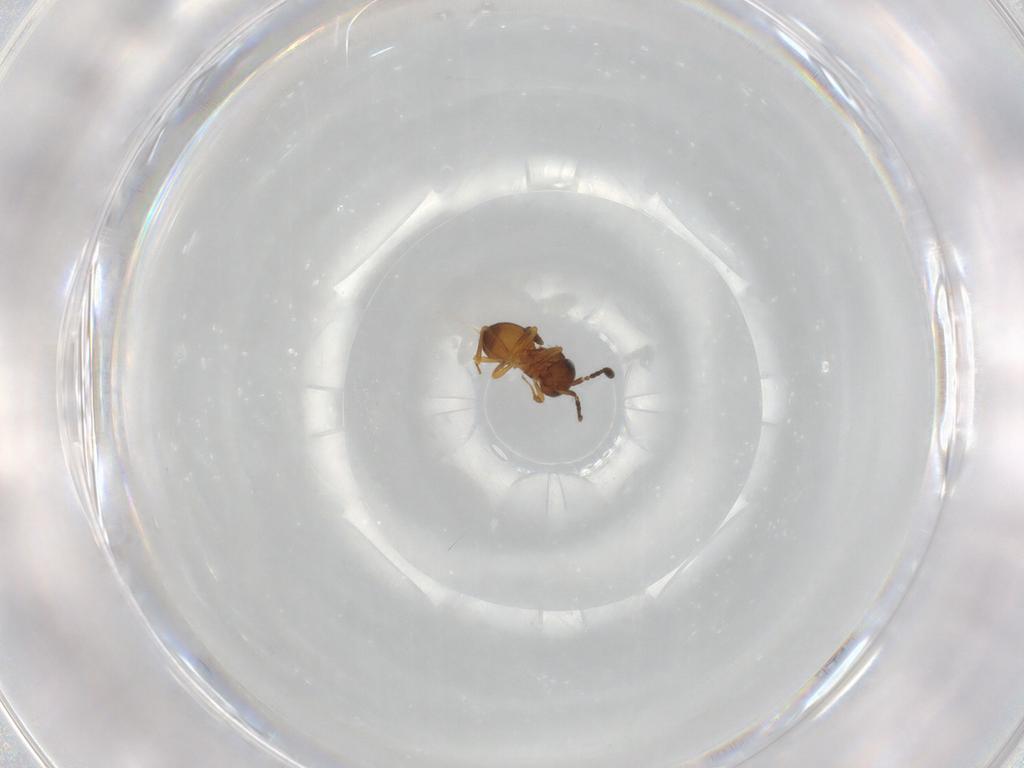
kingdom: Animalia
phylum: Arthropoda
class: Insecta
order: Hymenoptera
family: Scelionidae
